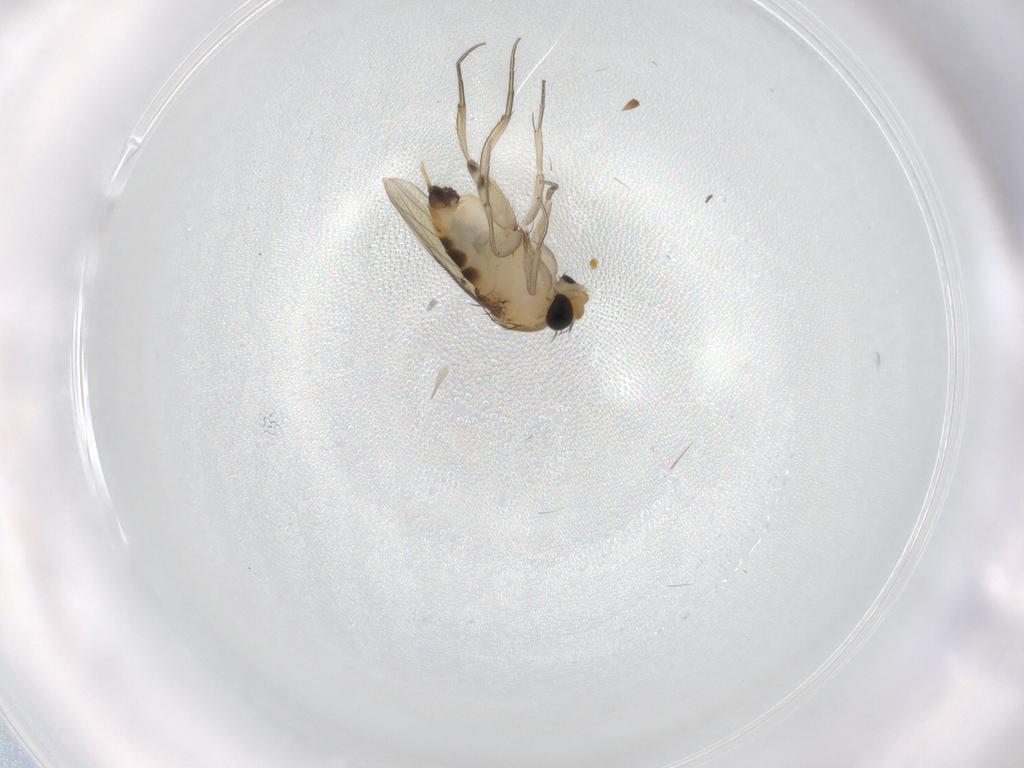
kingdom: Animalia
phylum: Arthropoda
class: Insecta
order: Diptera
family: Phoridae
